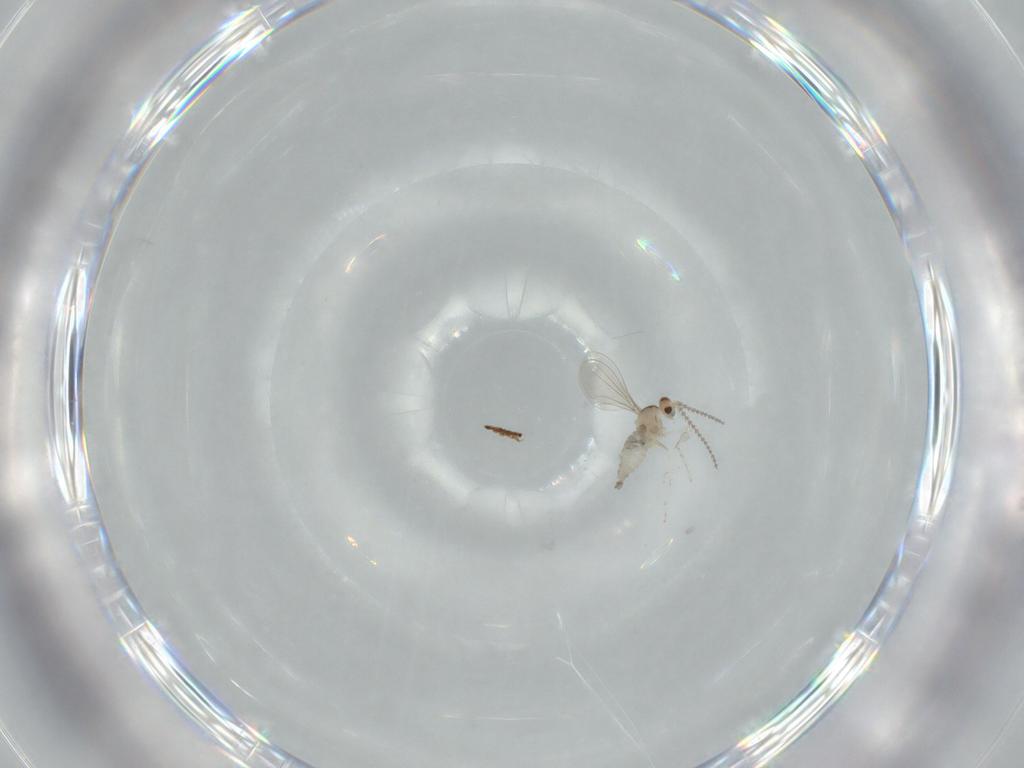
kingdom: Animalia
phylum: Arthropoda
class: Insecta
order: Diptera
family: Cecidomyiidae
